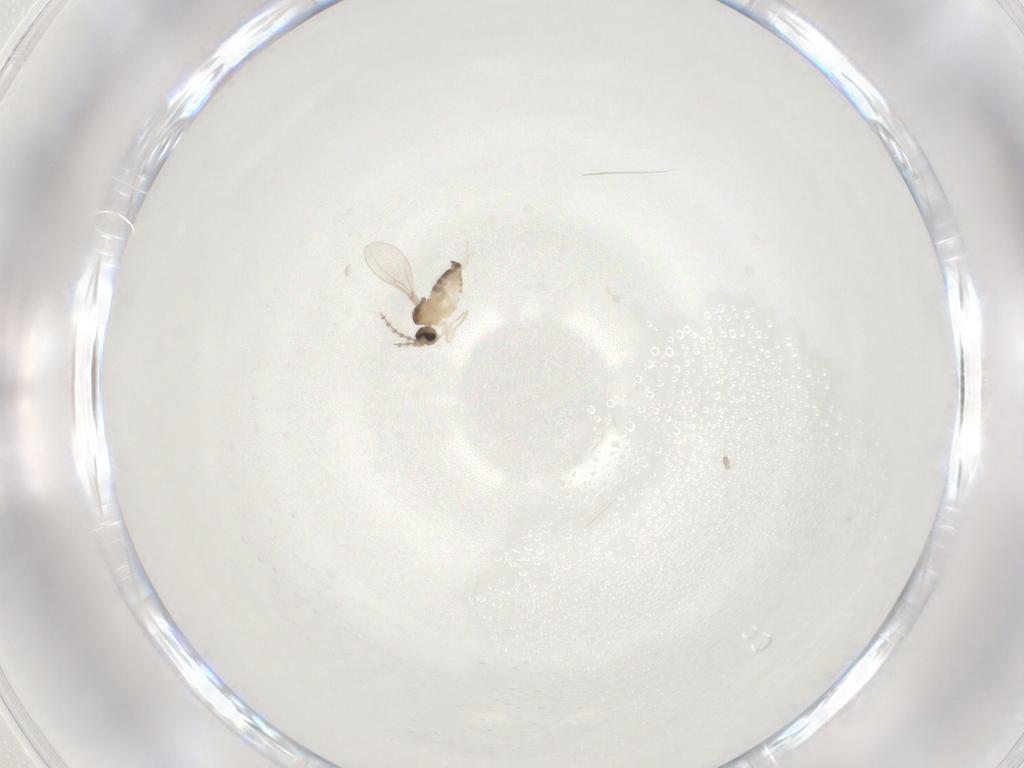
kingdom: Animalia
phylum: Arthropoda
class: Insecta
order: Diptera
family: Cecidomyiidae
